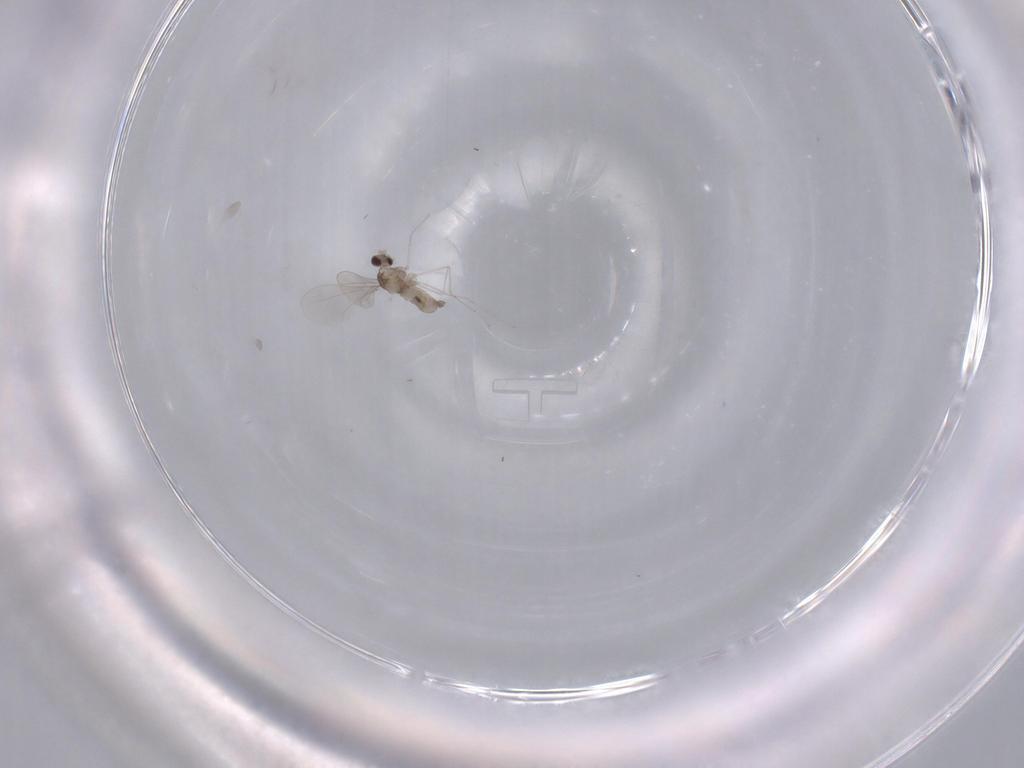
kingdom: Animalia
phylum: Arthropoda
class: Insecta
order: Diptera
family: Cecidomyiidae
